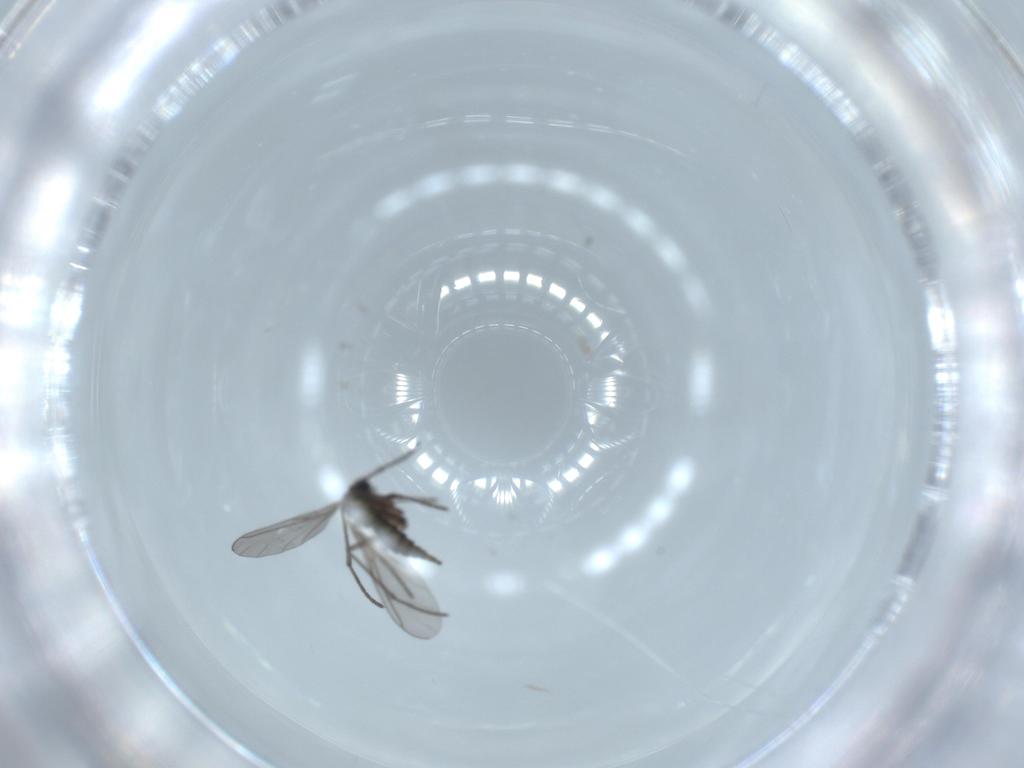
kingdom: Animalia
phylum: Arthropoda
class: Insecta
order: Diptera
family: Sciaridae
